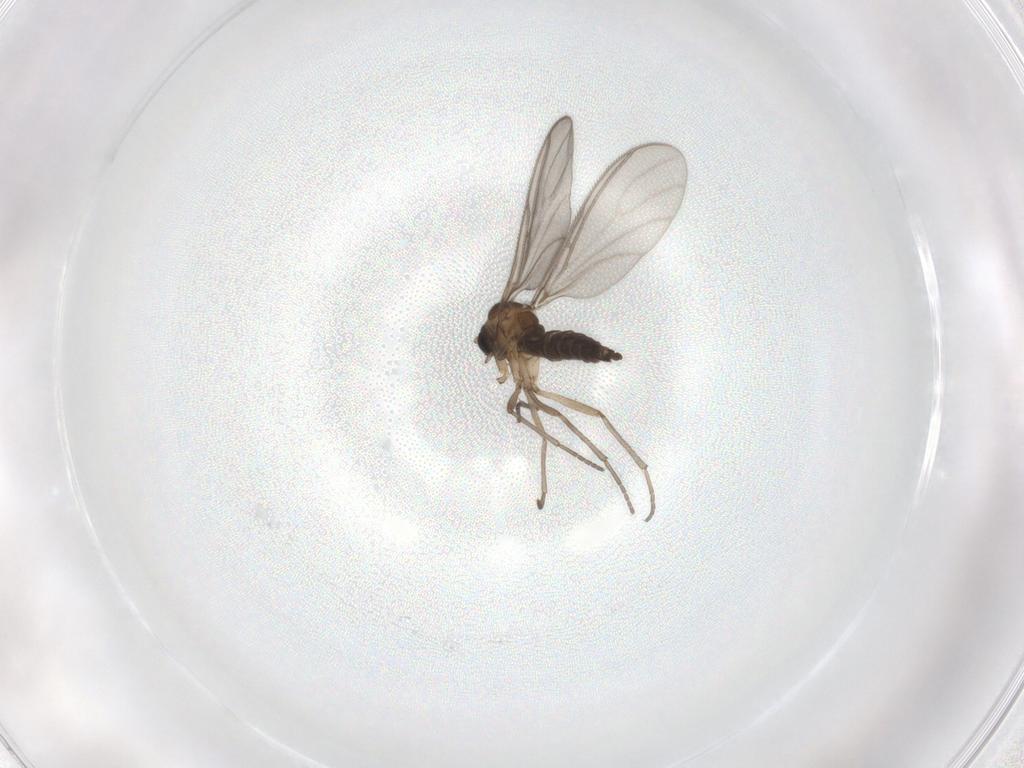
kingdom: Animalia
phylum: Arthropoda
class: Insecta
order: Diptera
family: Sciaridae
